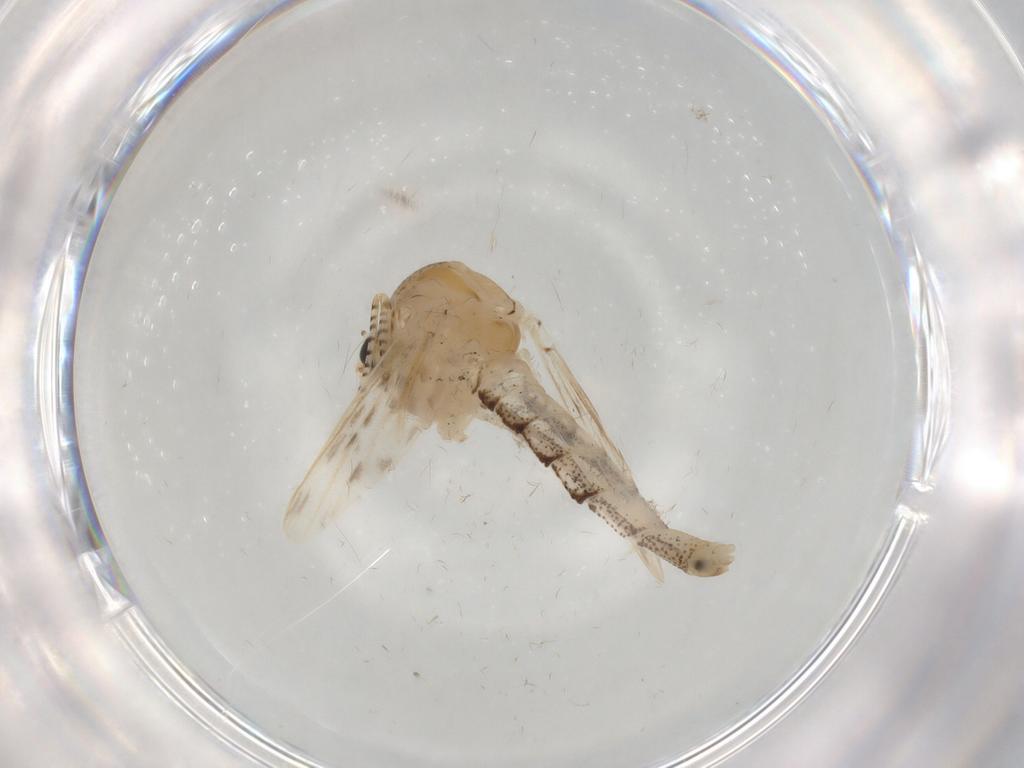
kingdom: Animalia
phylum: Arthropoda
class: Insecta
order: Diptera
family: Chaoboridae
